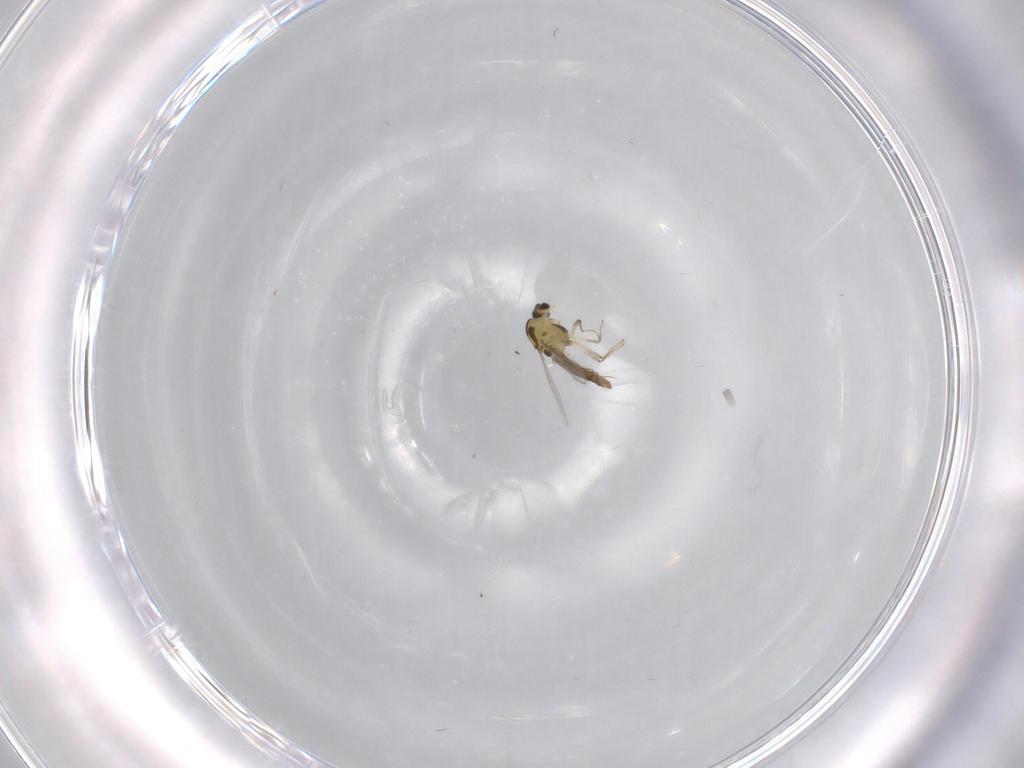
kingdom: Animalia
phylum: Arthropoda
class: Insecta
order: Diptera
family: Chironomidae
